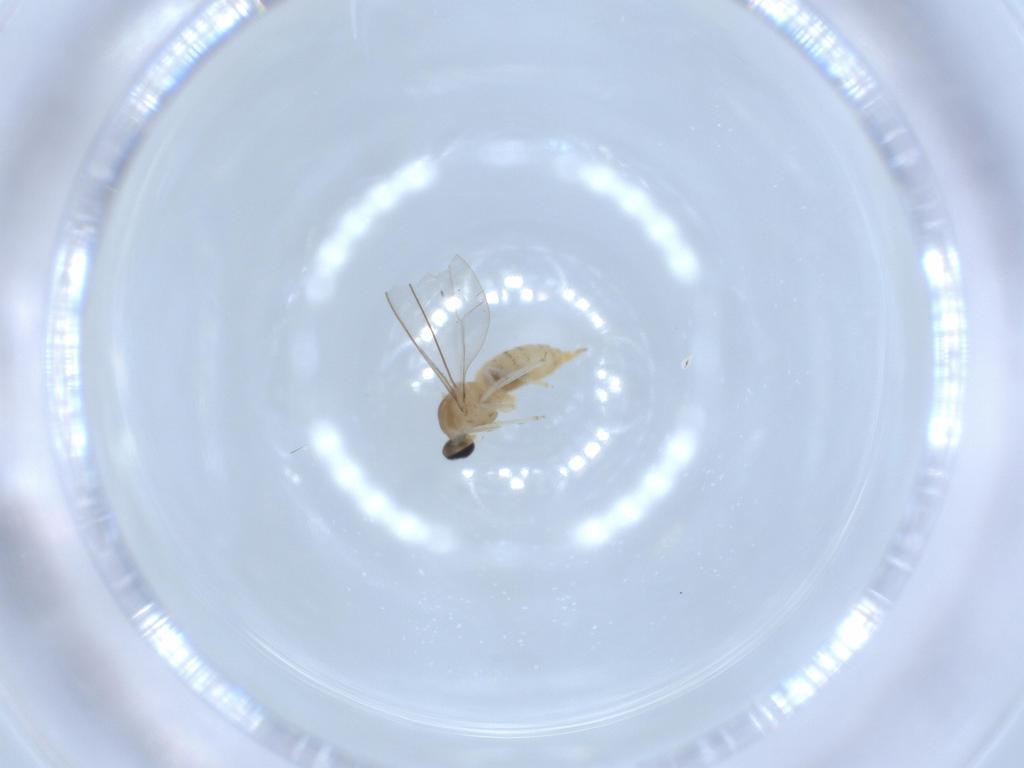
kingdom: Animalia
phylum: Arthropoda
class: Insecta
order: Diptera
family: Cecidomyiidae
